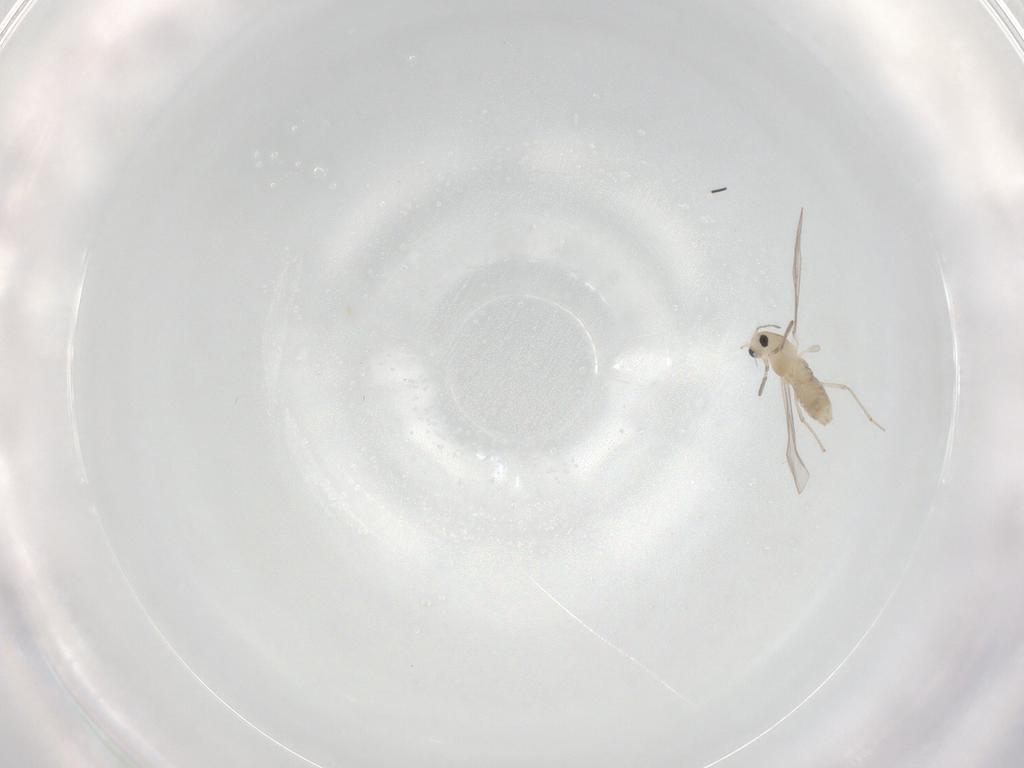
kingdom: Animalia
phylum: Arthropoda
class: Insecta
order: Diptera
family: Chironomidae
